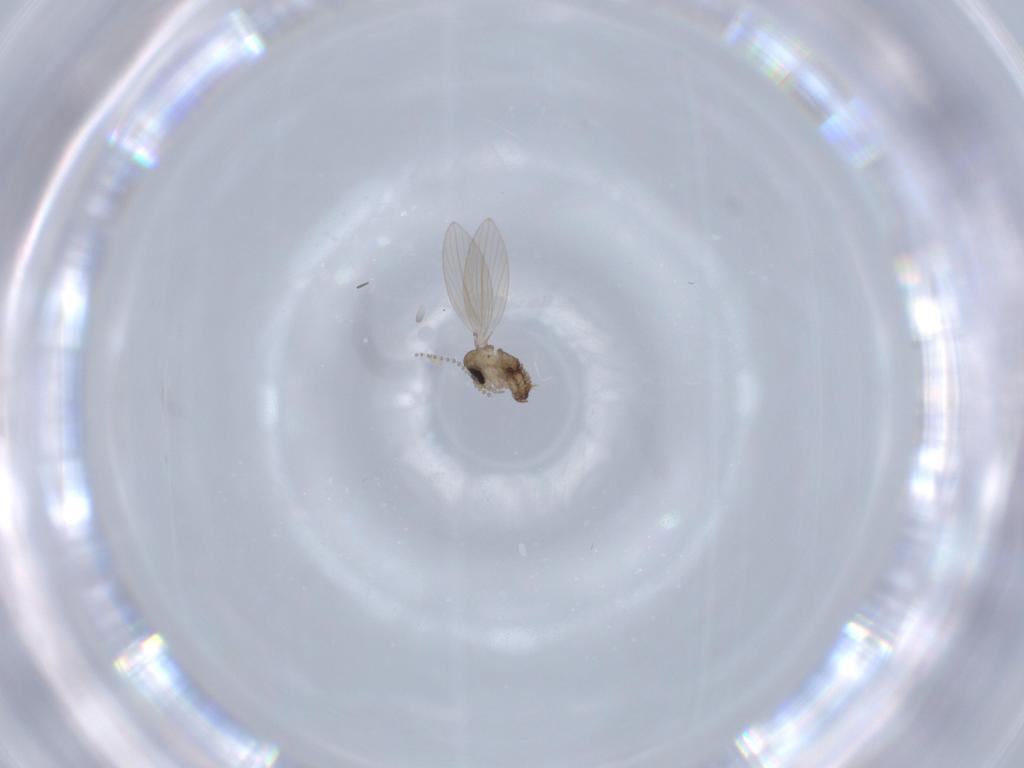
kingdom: Animalia
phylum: Arthropoda
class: Insecta
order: Diptera
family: Psychodidae
